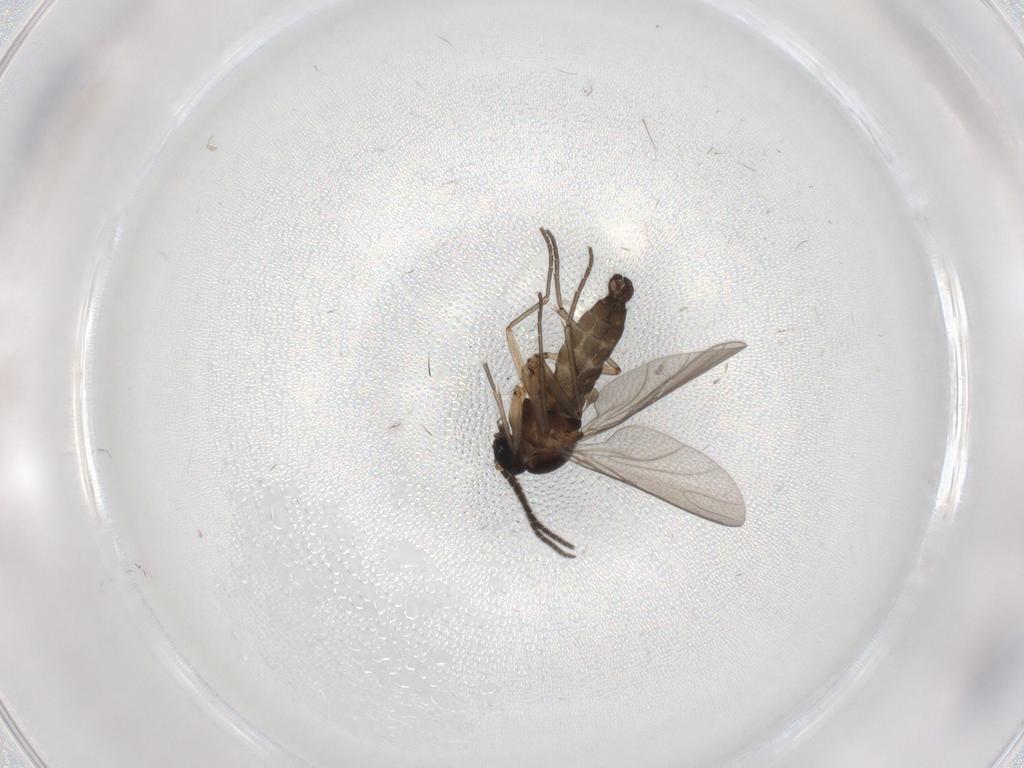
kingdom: Animalia
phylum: Arthropoda
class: Insecta
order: Diptera
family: Sciaridae
